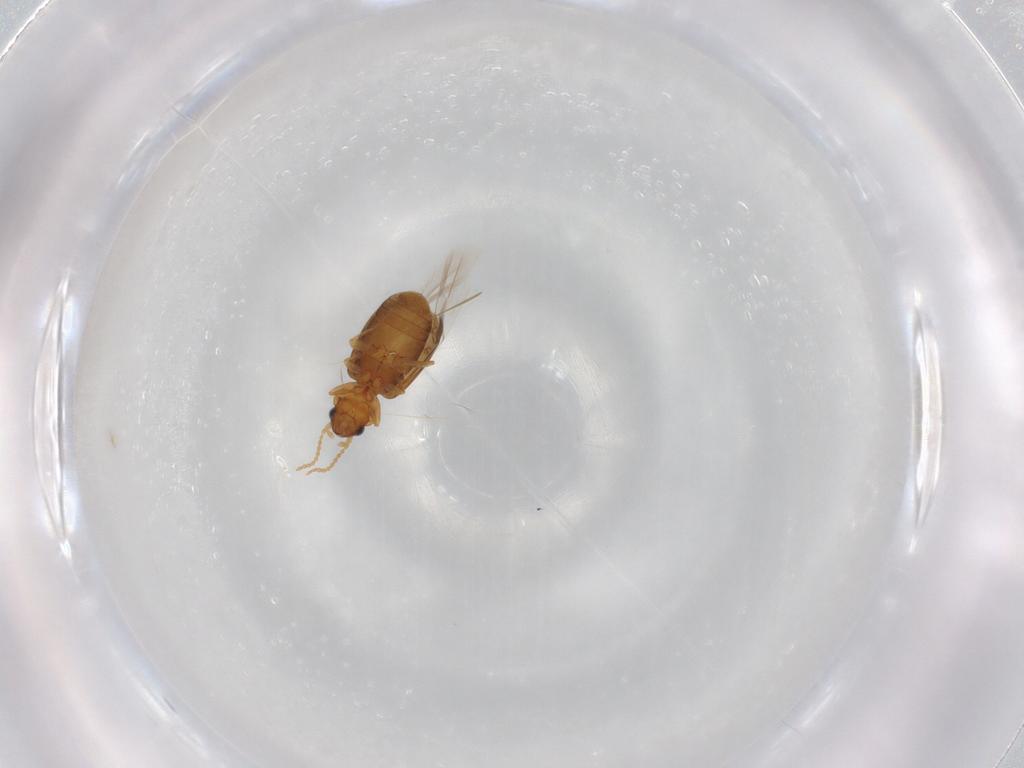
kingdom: Animalia
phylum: Arthropoda
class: Insecta
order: Coleoptera
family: Carabidae
